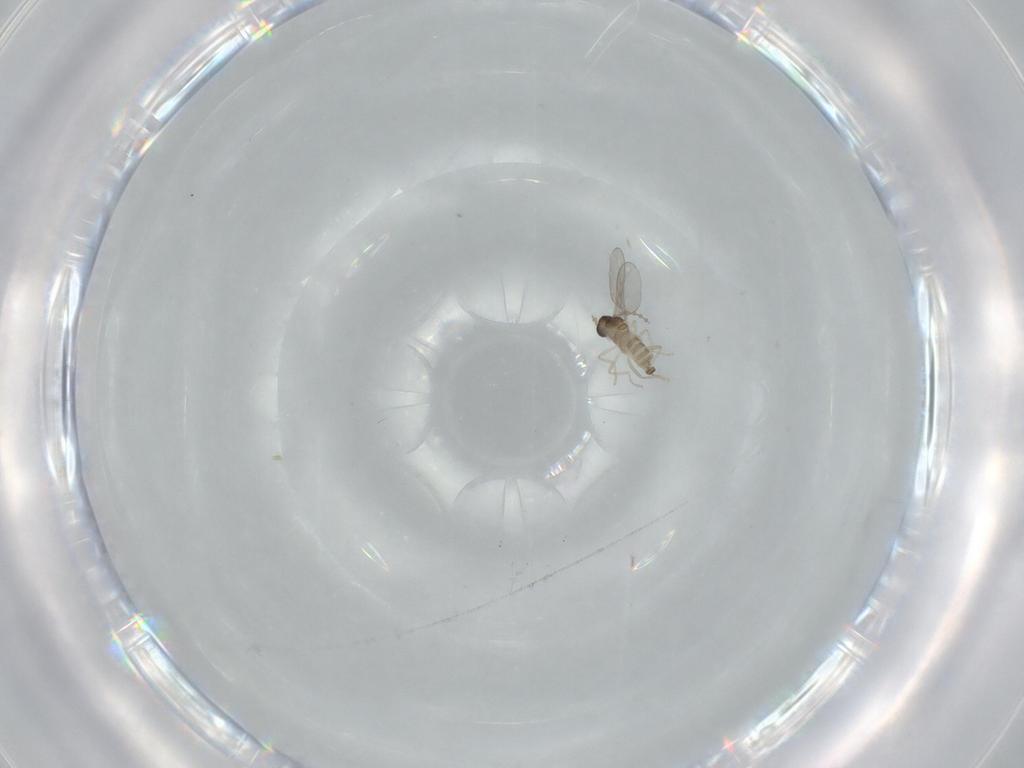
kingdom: Animalia
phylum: Arthropoda
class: Insecta
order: Diptera
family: Cecidomyiidae
